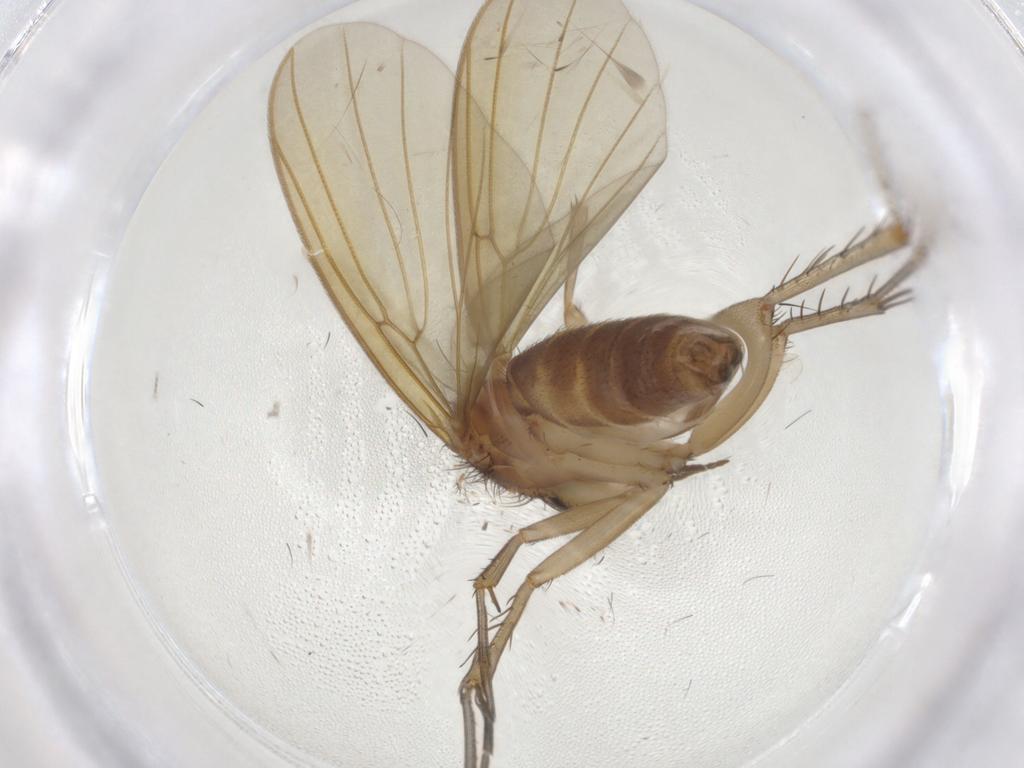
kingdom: Animalia
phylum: Arthropoda
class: Insecta
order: Diptera
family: Mycetophilidae
